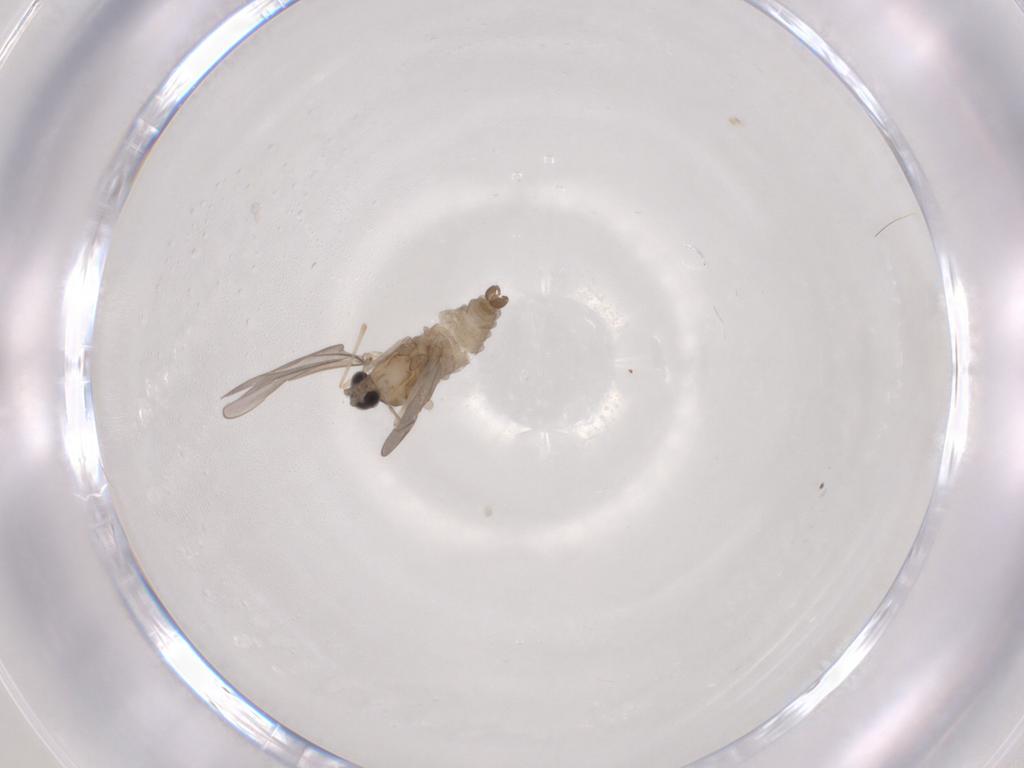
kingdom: Animalia
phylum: Arthropoda
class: Insecta
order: Diptera
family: Cecidomyiidae
